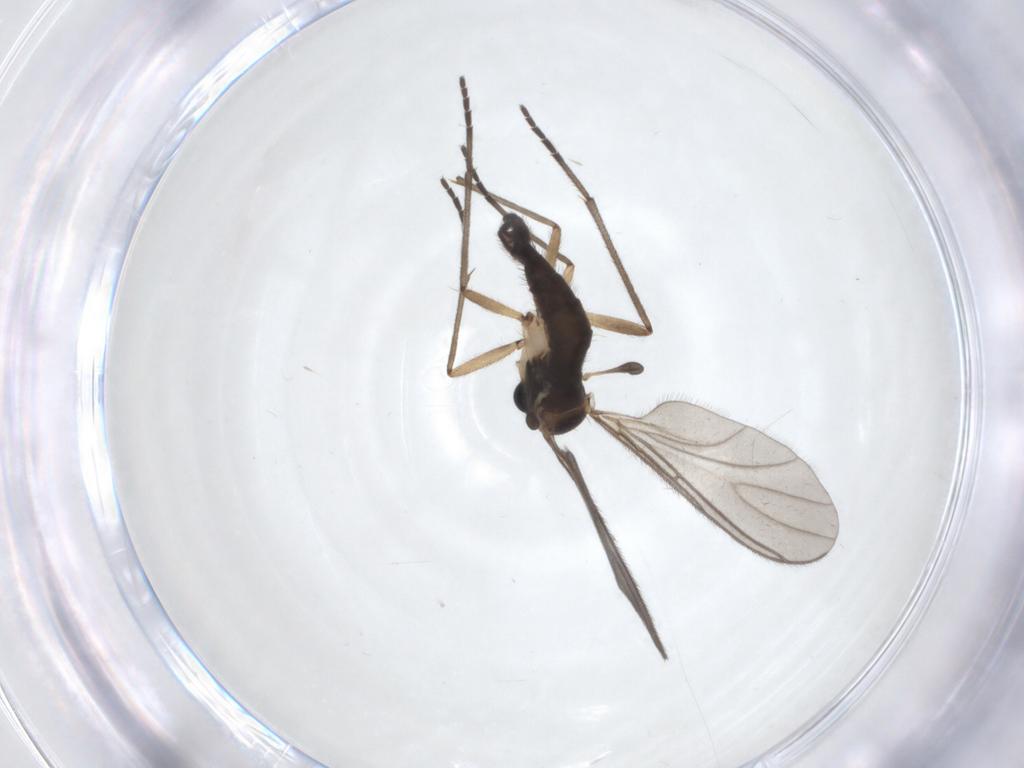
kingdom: Animalia
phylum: Arthropoda
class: Insecta
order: Diptera
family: Sciaridae
